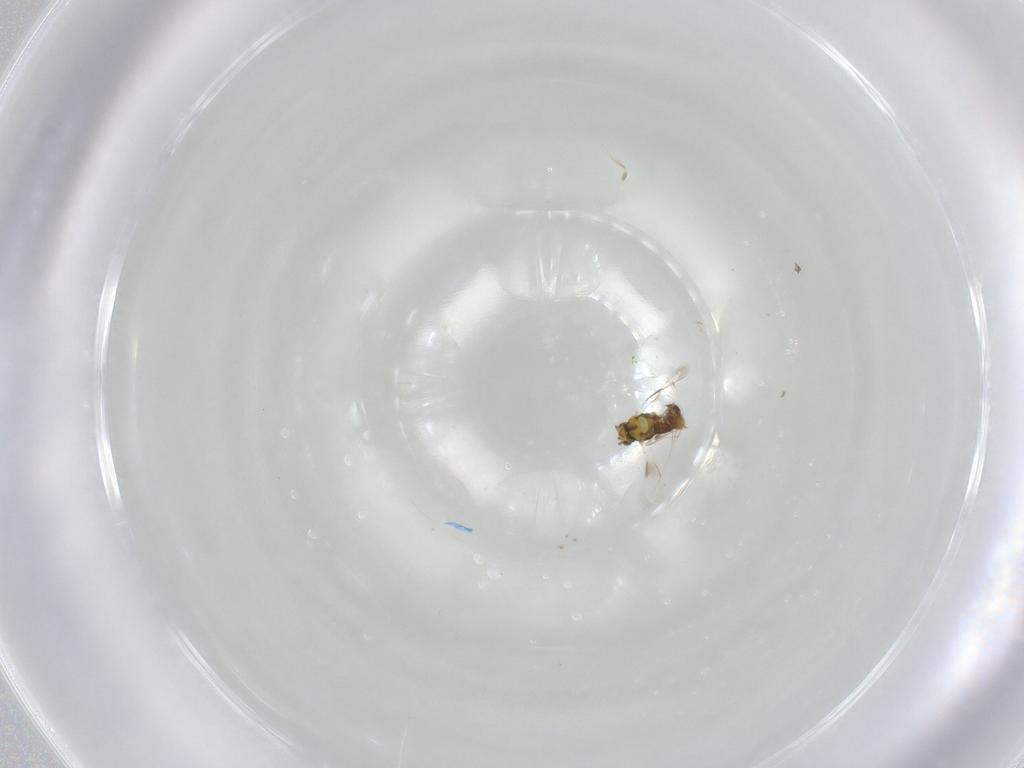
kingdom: Animalia
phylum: Arthropoda
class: Insecta
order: Hymenoptera
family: Aphelinidae
